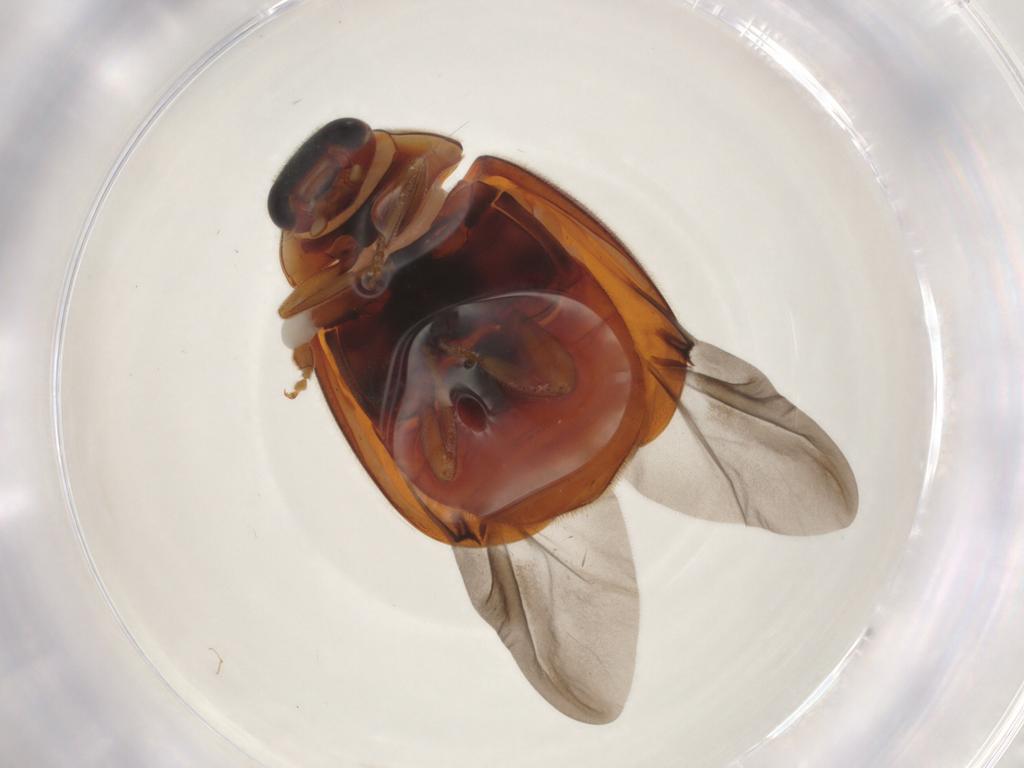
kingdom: Animalia
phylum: Arthropoda
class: Insecta
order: Coleoptera
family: Coccinellidae
